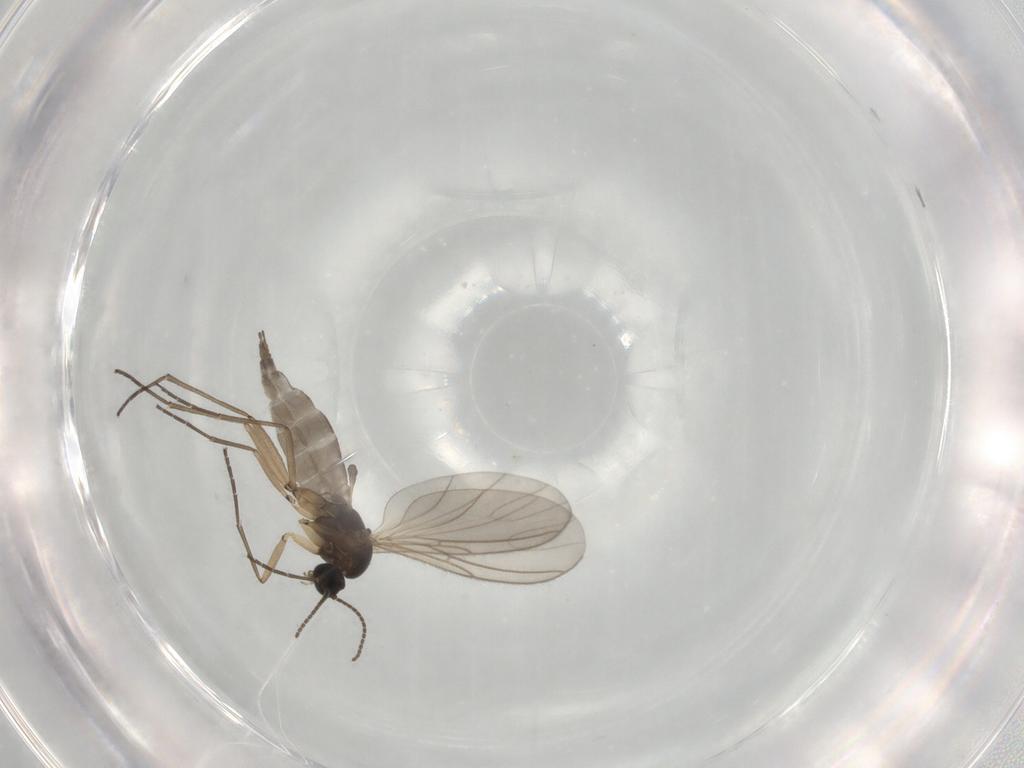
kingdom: Animalia
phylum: Arthropoda
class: Insecta
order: Diptera
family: Sciaridae
